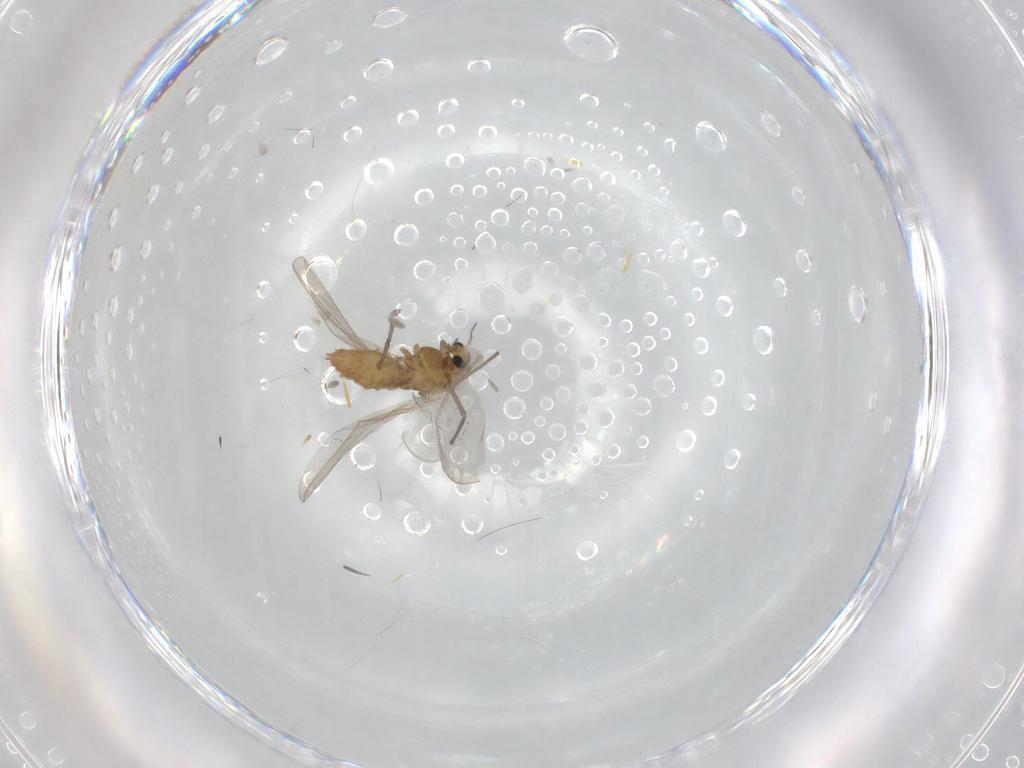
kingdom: Animalia
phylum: Arthropoda
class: Insecta
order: Diptera
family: Chironomidae
